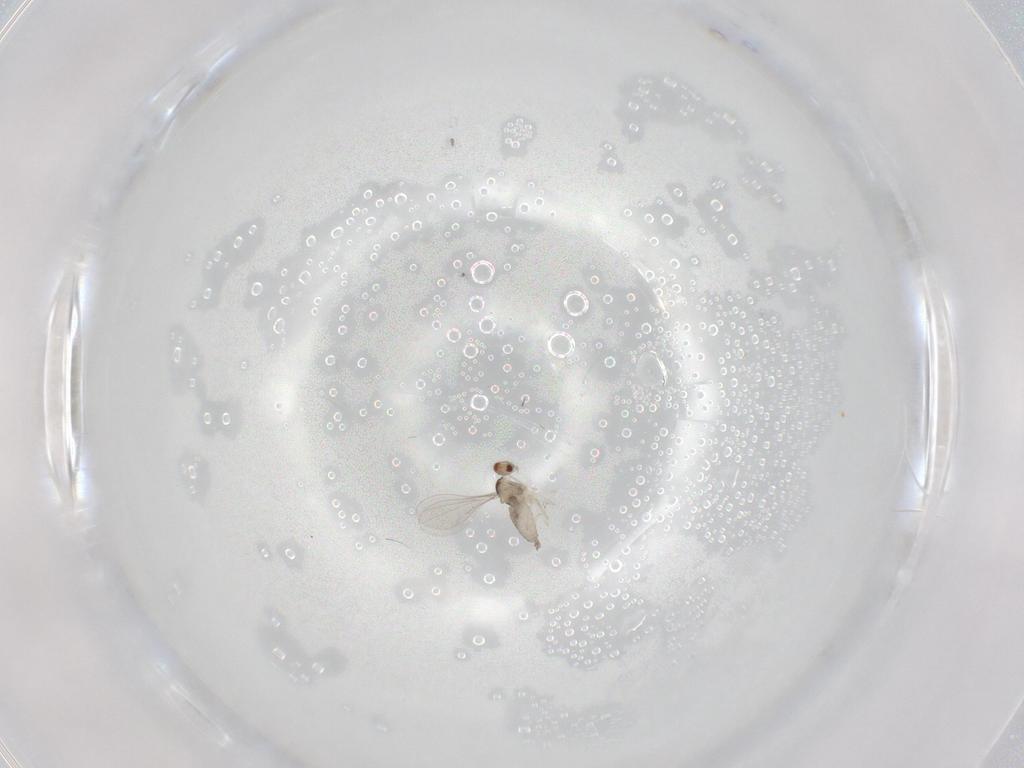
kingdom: Animalia
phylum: Arthropoda
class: Insecta
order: Diptera
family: Cecidomyiidae
